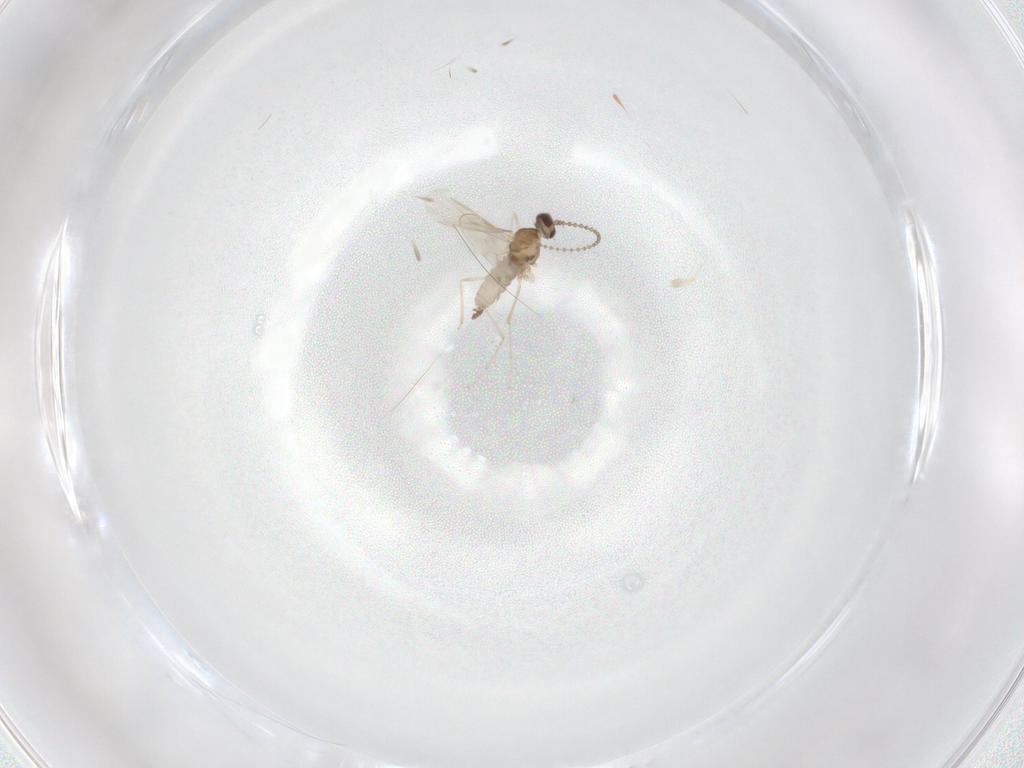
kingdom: Animalia
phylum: Arthropoda
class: Insecta
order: Diptera
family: Cecidomyiidae
